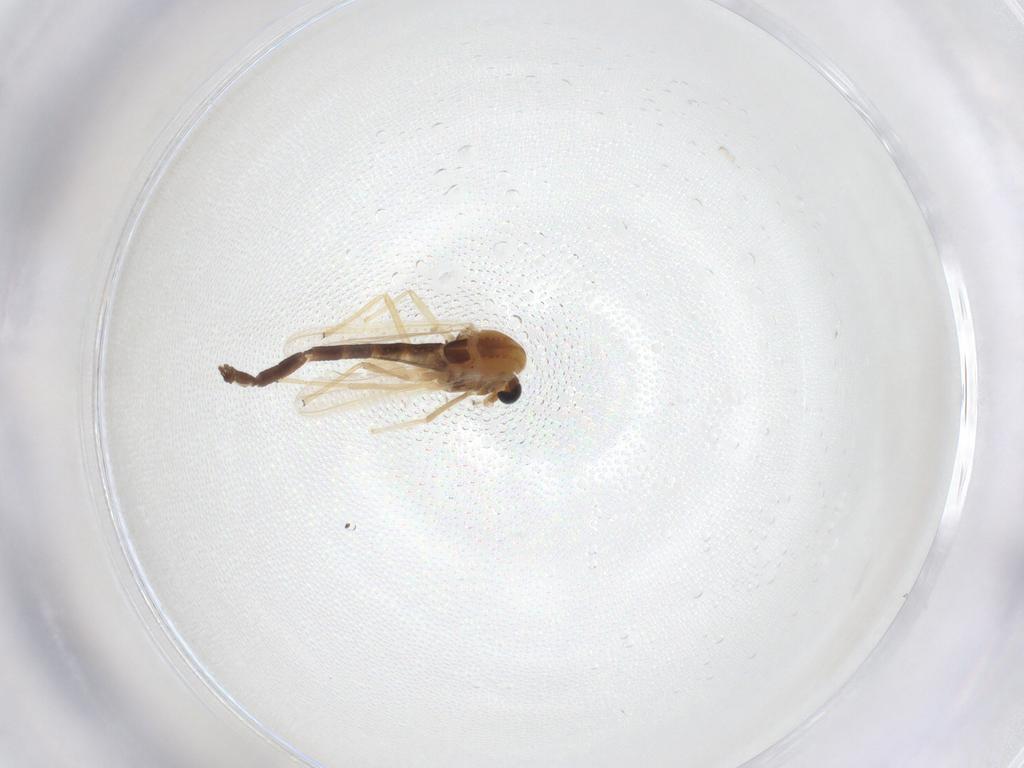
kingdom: Animalia
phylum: Arthropoda
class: Insecta
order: Diptera
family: Chironomidae
